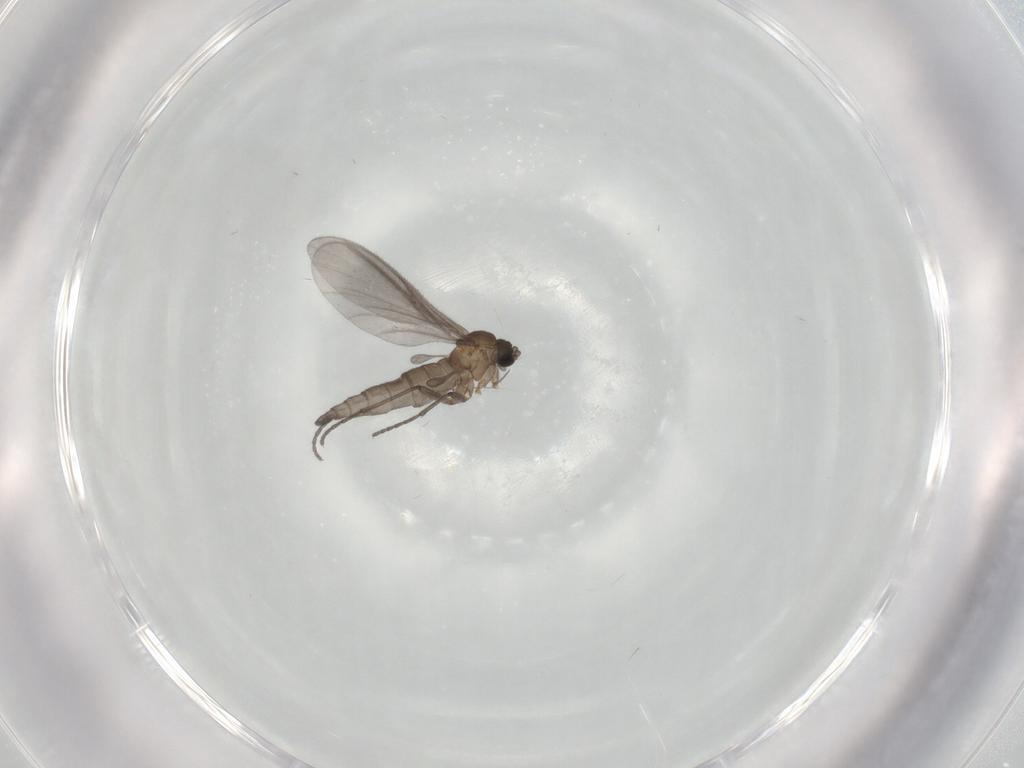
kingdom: Animalia
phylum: Arthropoda
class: Insecta
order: Diptera
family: Sciaridae
